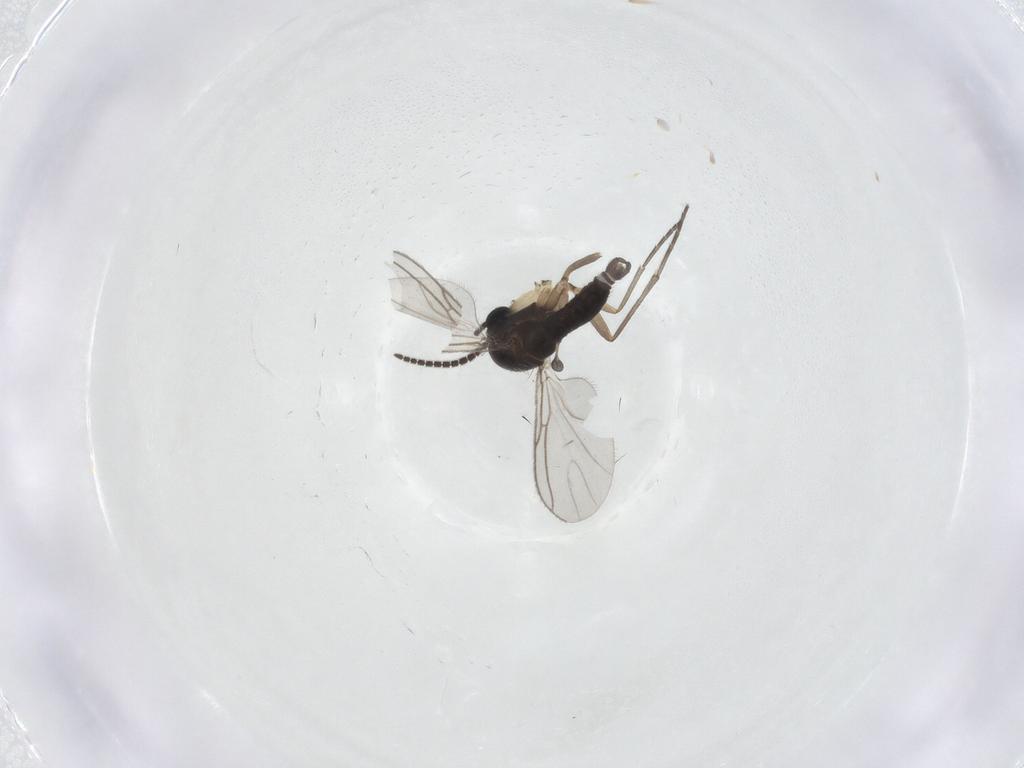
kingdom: Animalia
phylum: Arthropoda
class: Insecta
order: Diptera
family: Sciaridae
